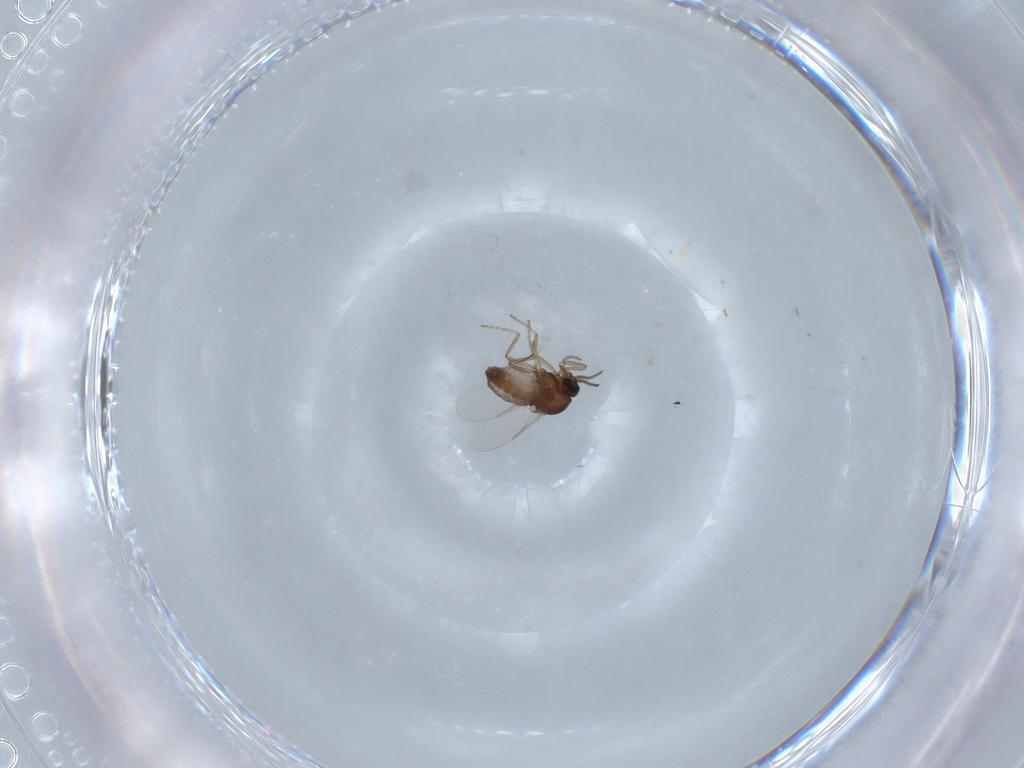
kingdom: Animalia
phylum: Arthropoda
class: Insecta
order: Diptera
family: Ceratopogonidae
